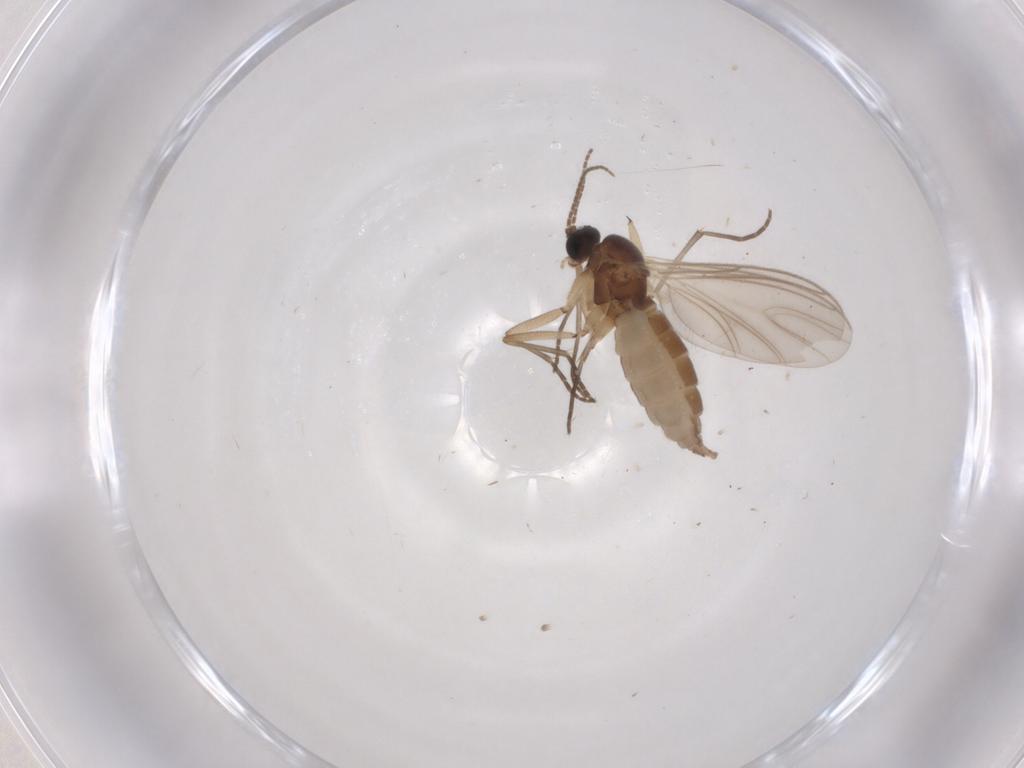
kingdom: Animalia
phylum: Arthropoda
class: Insecta
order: Diptera
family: Sciaridae
